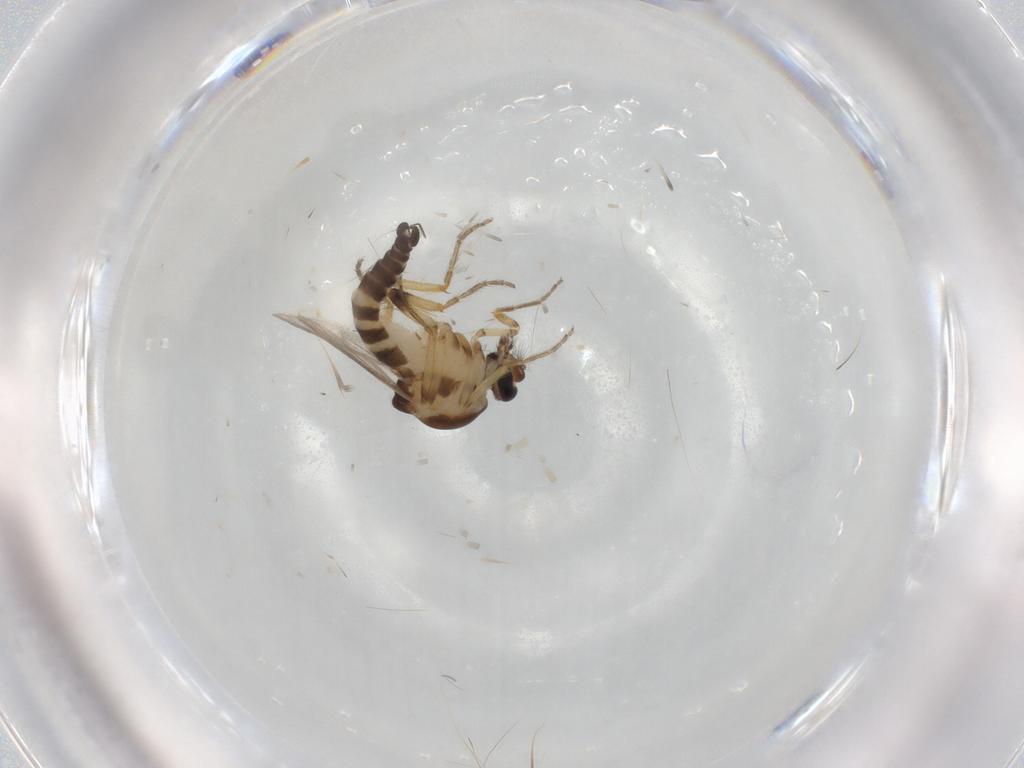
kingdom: Animalia
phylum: Arthropoda
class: Insecta
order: Diptera
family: Ceratopogonidae
